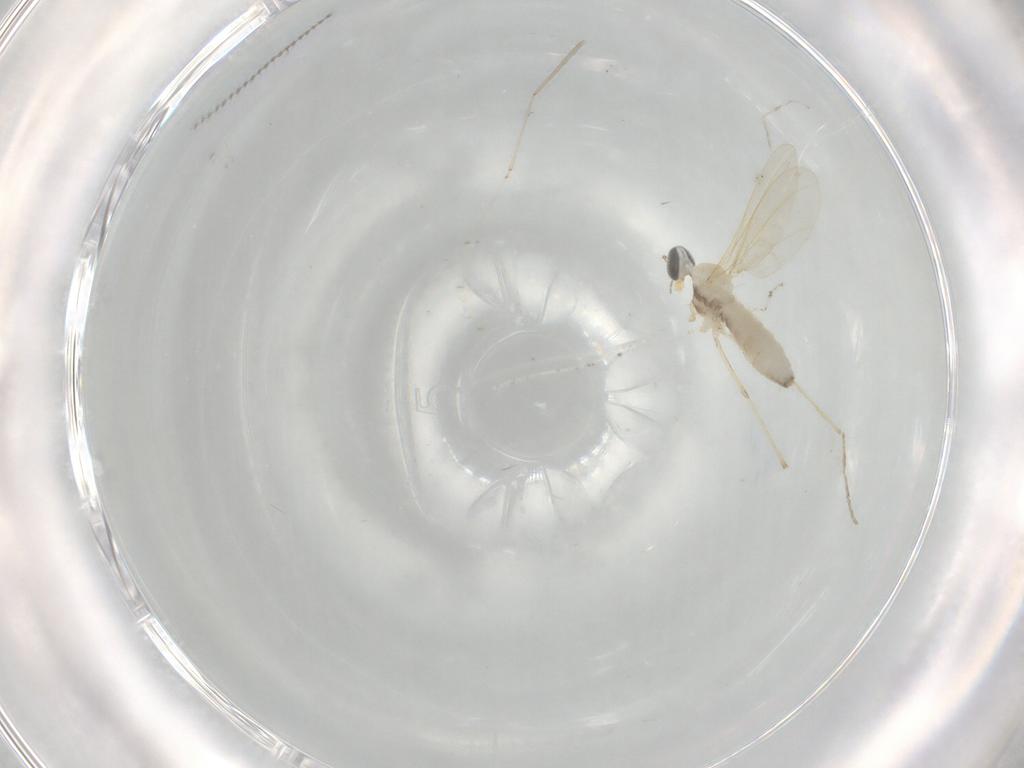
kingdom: Animalia
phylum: Arthropoda
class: Insecta
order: Diptera
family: Cecidomyiidae
